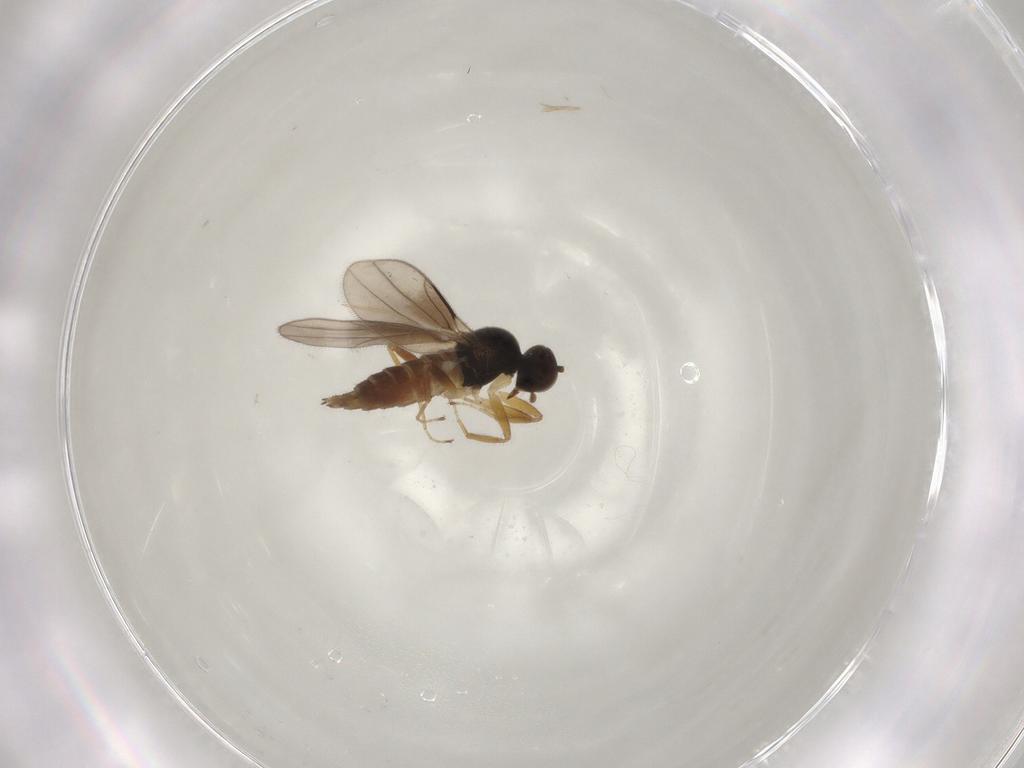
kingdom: Animalia
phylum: Arthropoda
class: Insecta
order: Diptera
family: Hybotidae
